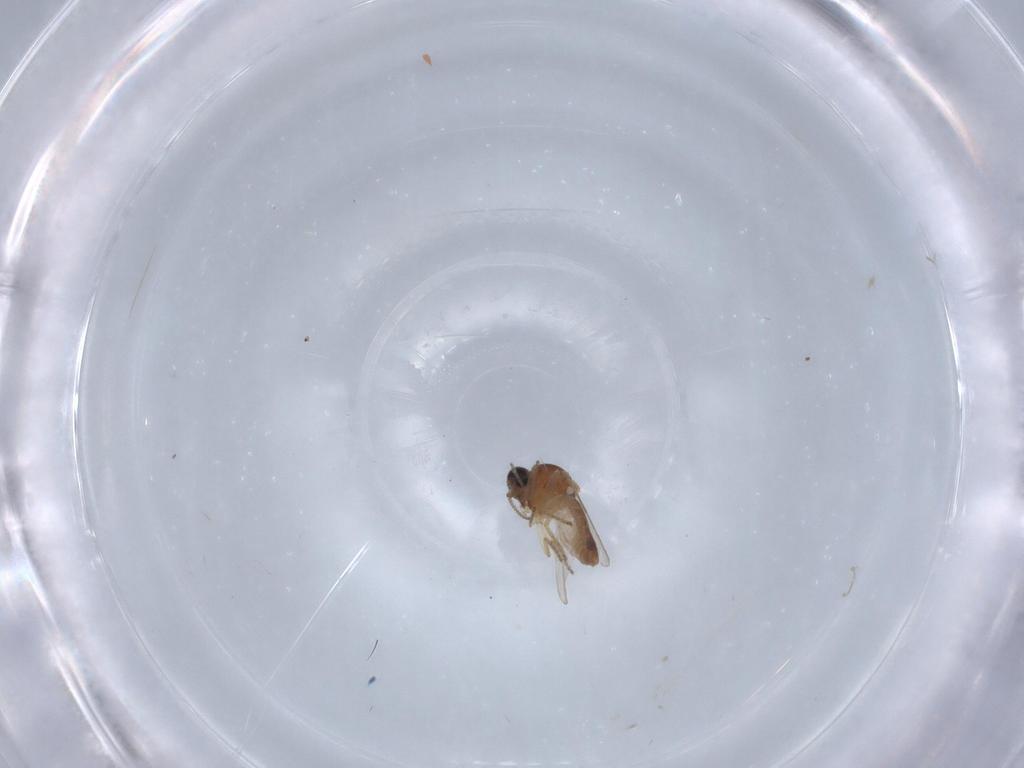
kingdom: Animalia
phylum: Arthropoda
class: Insecta
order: Diptera
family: Ceratopogonidae
